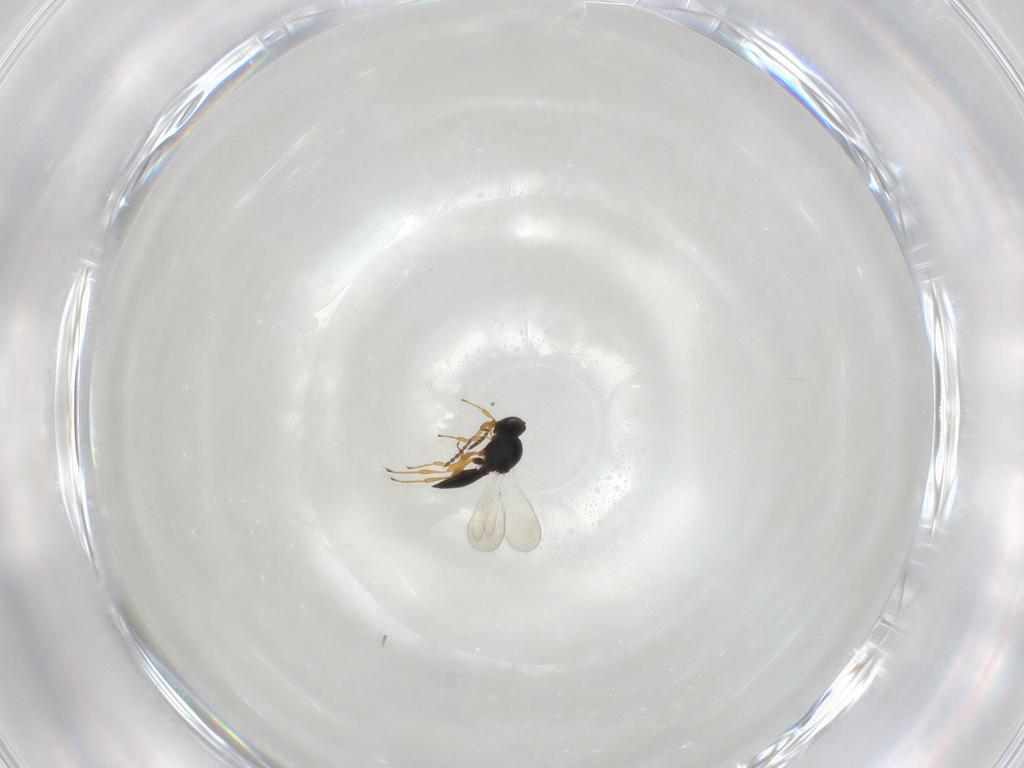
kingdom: Animalia
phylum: Arthropoda
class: Insecta
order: Hymenoptera
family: Platygastridae
